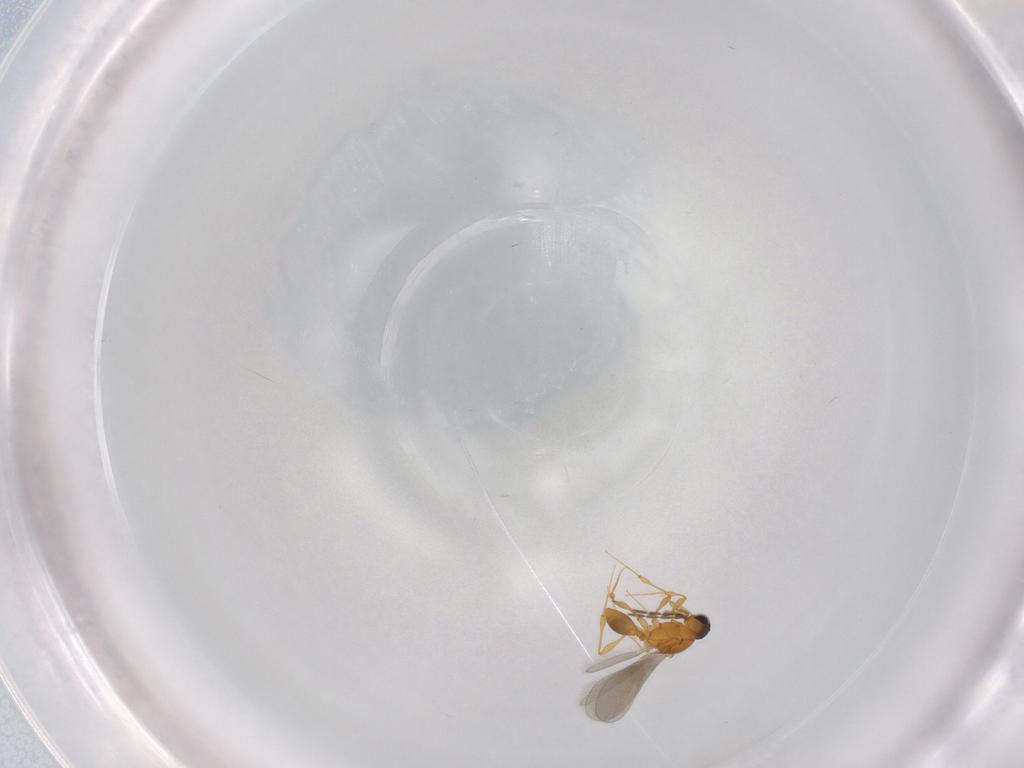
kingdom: Animalia
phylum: Arthropoda
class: Insecta
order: Hymenoptera
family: Platygastridae
